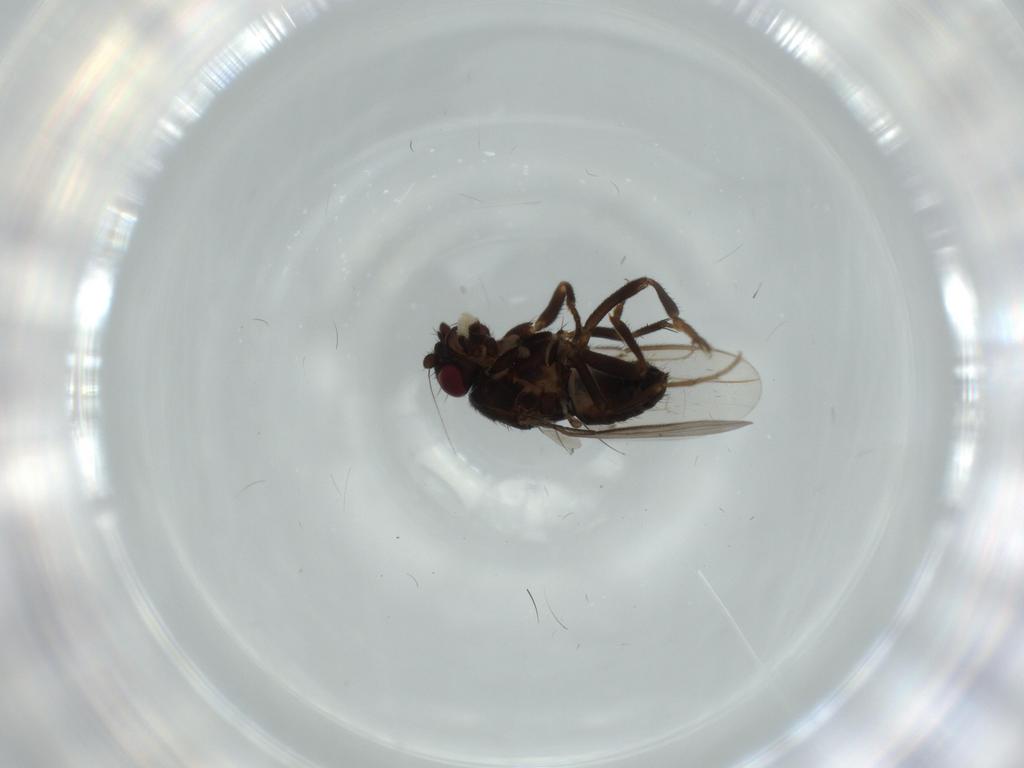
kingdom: Animalia
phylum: Arthropoda
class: Insecta
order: Diptera
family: Sphaeroceridae
